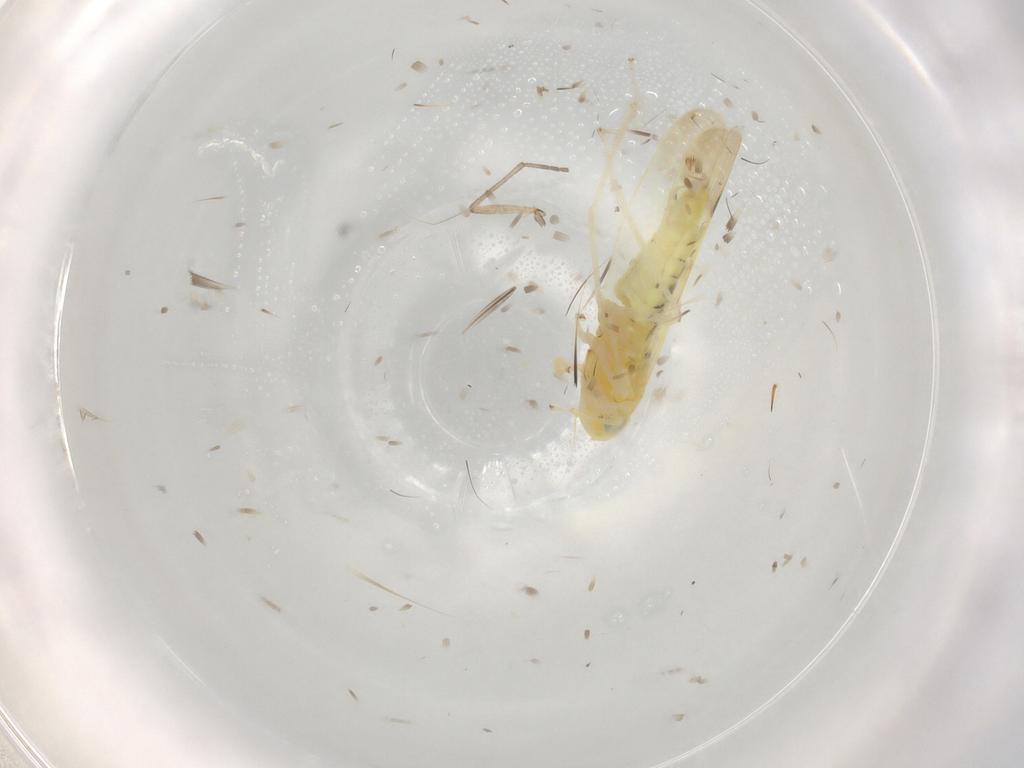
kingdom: Animalia
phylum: Arthropoda
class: Insecta
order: Hemiptera
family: Cicadellidae
